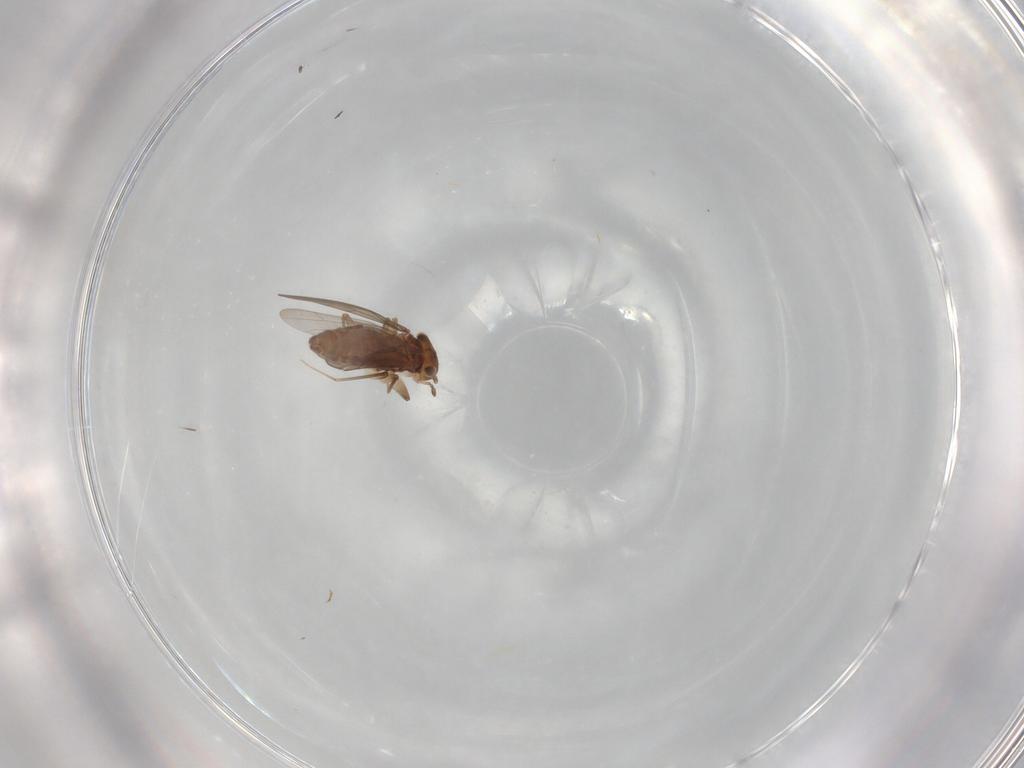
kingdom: Animalia
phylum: Arthropoda
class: Insecta
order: Psocodea
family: Lepidopsocidae
